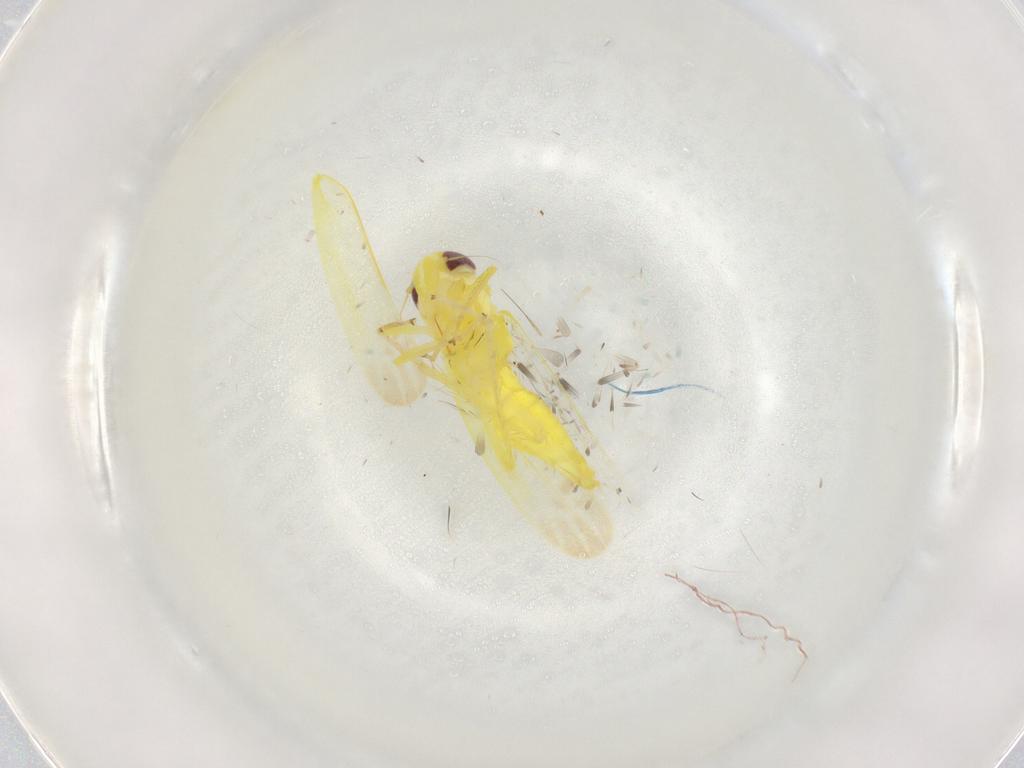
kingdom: Animalia
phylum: Arthropoda
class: Insecta
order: Hemiptera
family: Cicadellidae
